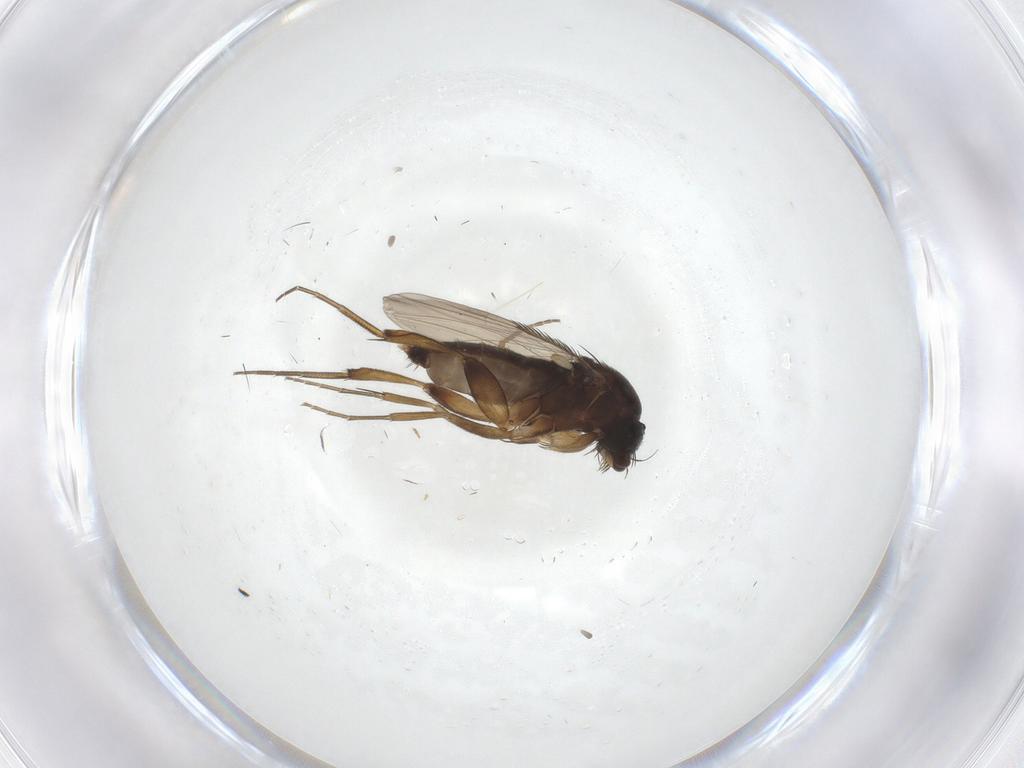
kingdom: Animalia
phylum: Arthropoda
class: Insecta
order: Diptera
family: Phoridae
